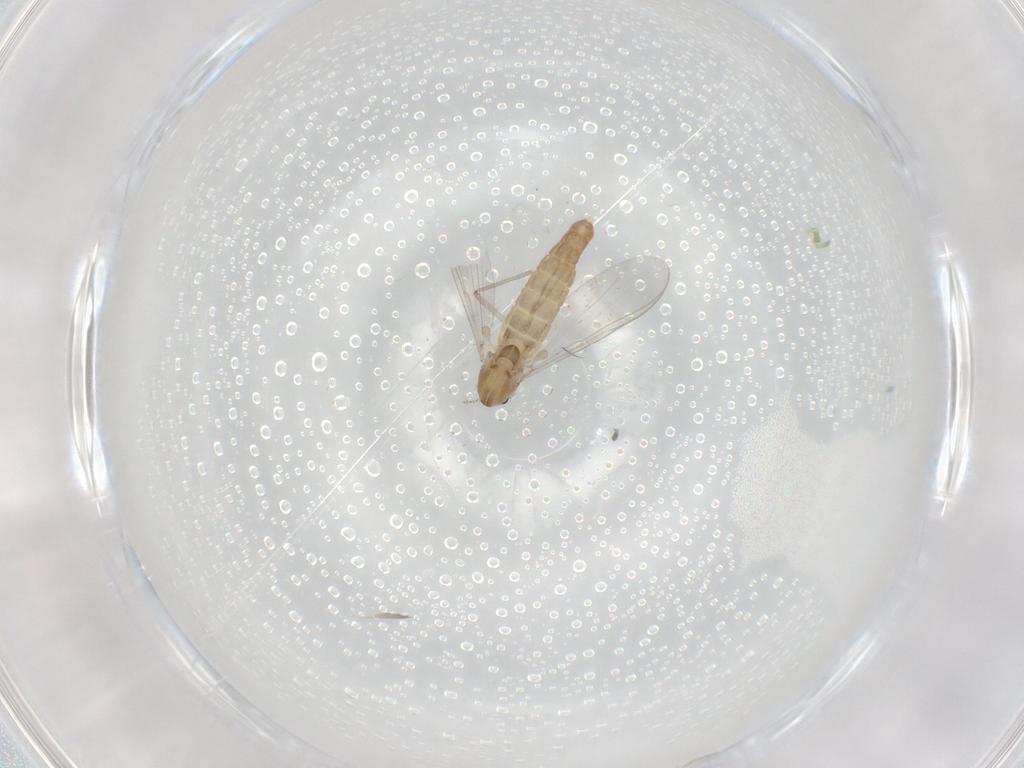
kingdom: Animalia
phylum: Arthropoda
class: Insecta
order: Diptera
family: Chironomidae
